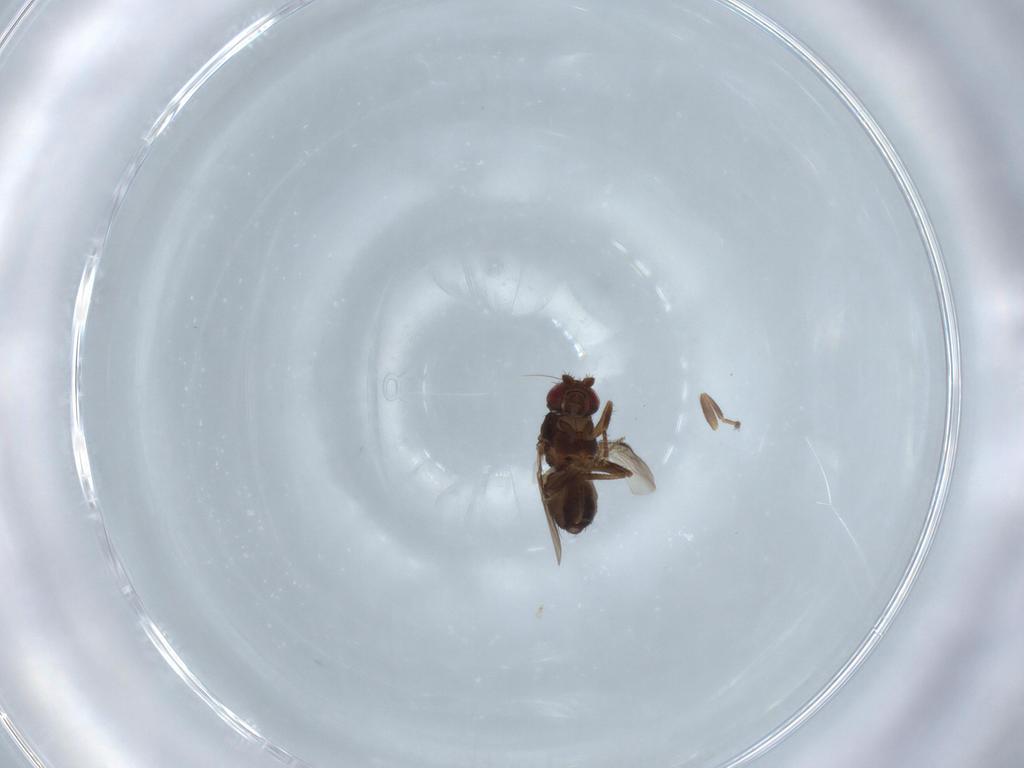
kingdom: Animalia
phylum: Arthropoda
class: Insecta
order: Diptera
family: Sphaeroceridae
